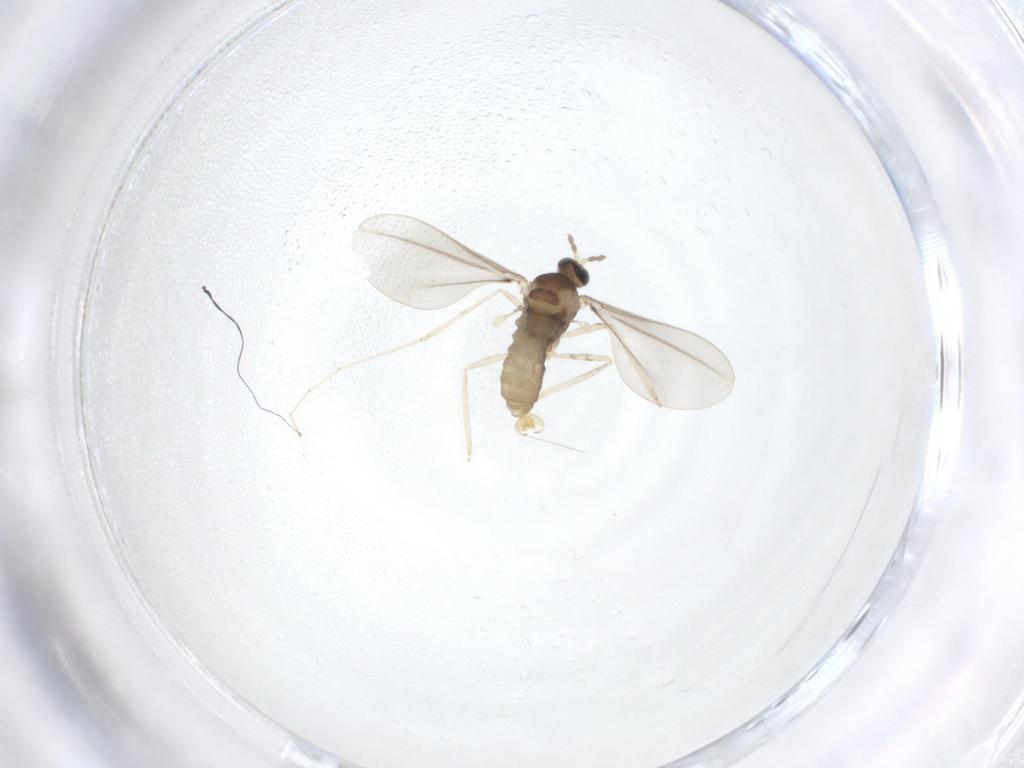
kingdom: Animalia
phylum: Arthropoda
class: Insecta
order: Diptera
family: Cecidomyiidae
